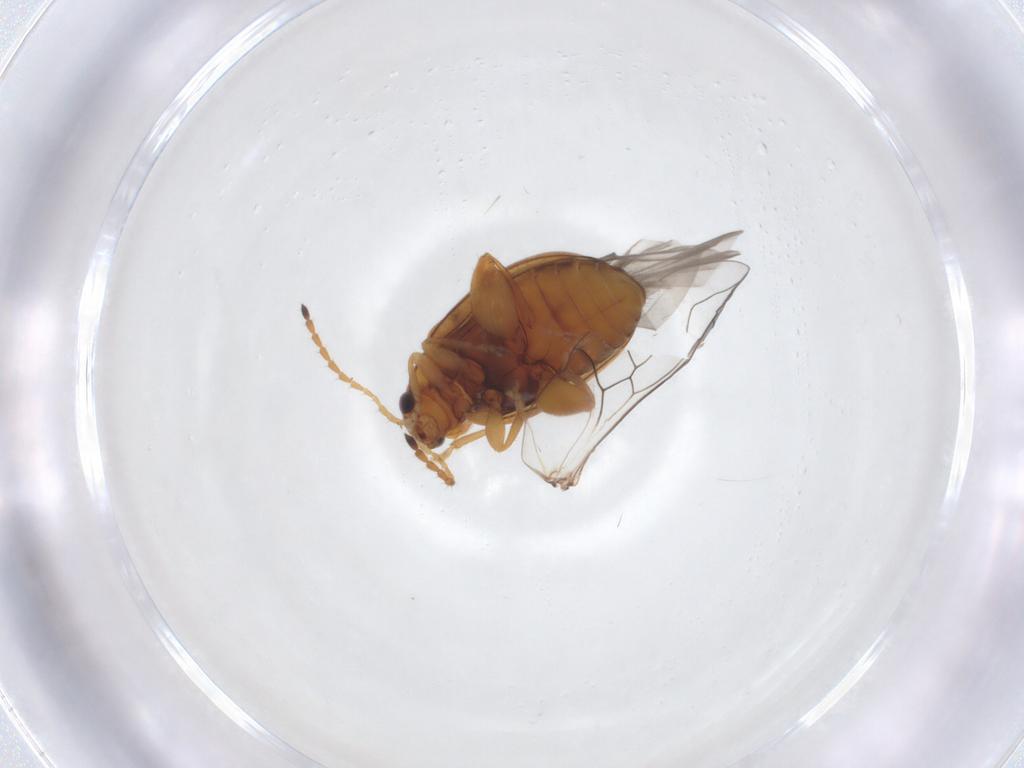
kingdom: Animalia
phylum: Arthropoda
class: Insecta
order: Coleoptera
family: Chrysomelidae
